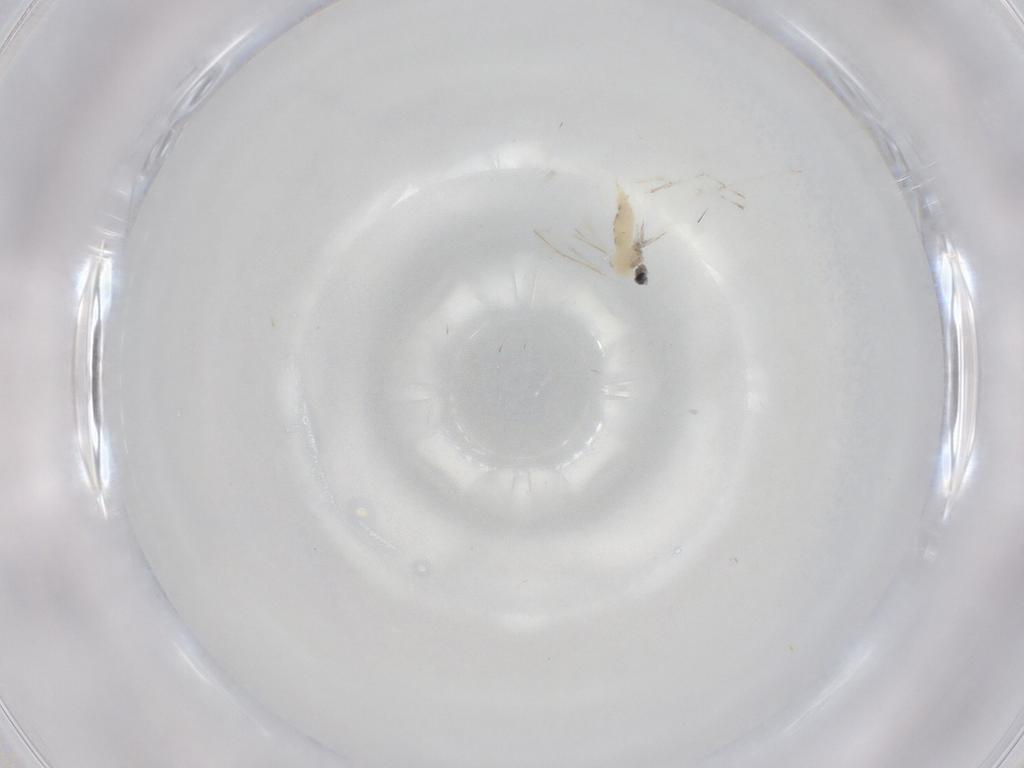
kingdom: Animalia
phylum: Arthropoda
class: Insecta
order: Diptera
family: Cecidomyiidae
